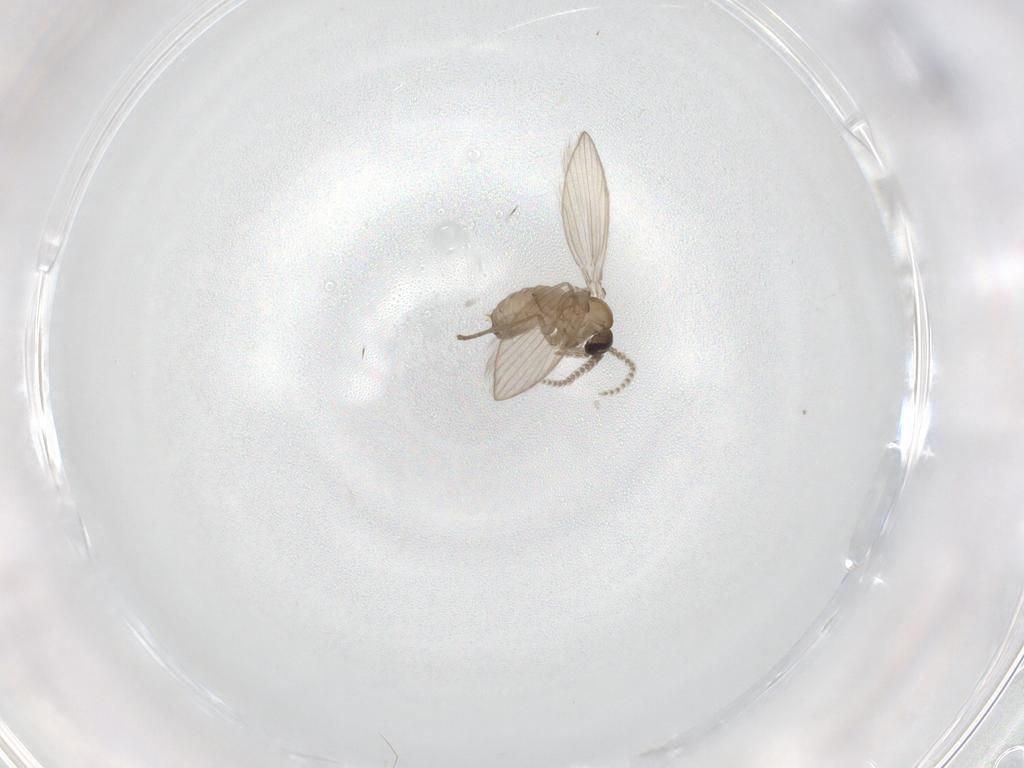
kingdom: Animalia
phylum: Arthropoda
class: Insecta
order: Diptera
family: Psychodidae
